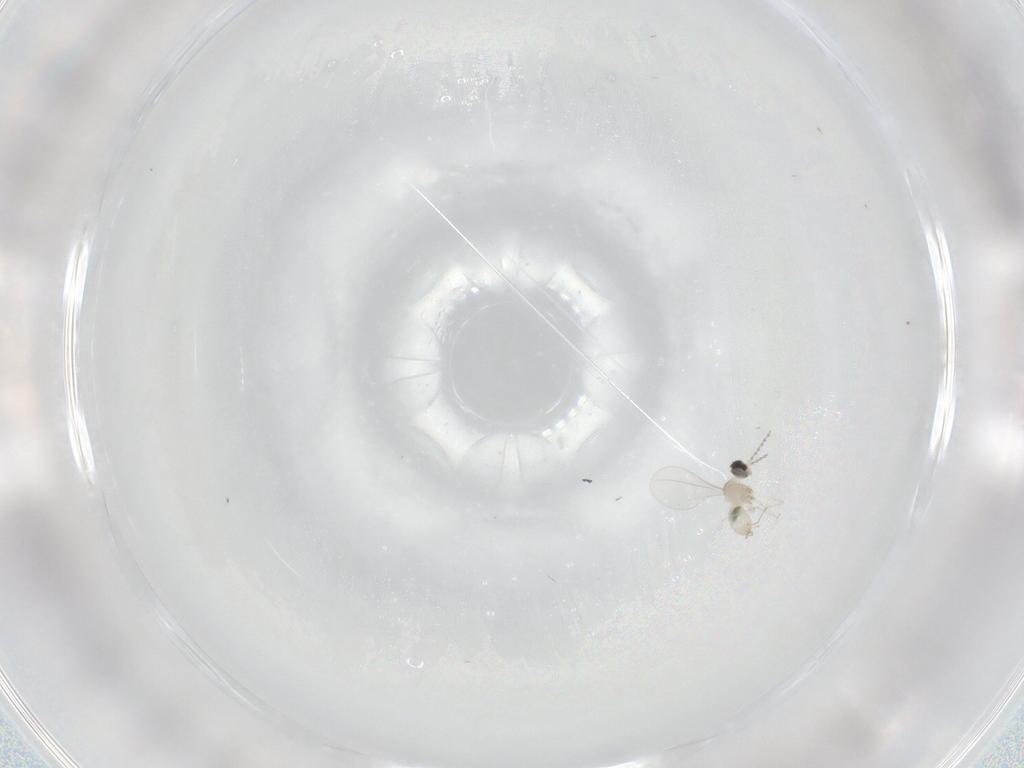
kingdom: Animalia
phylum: Arthropoda
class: Insecta
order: Diptera
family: Cecidomyiidae
